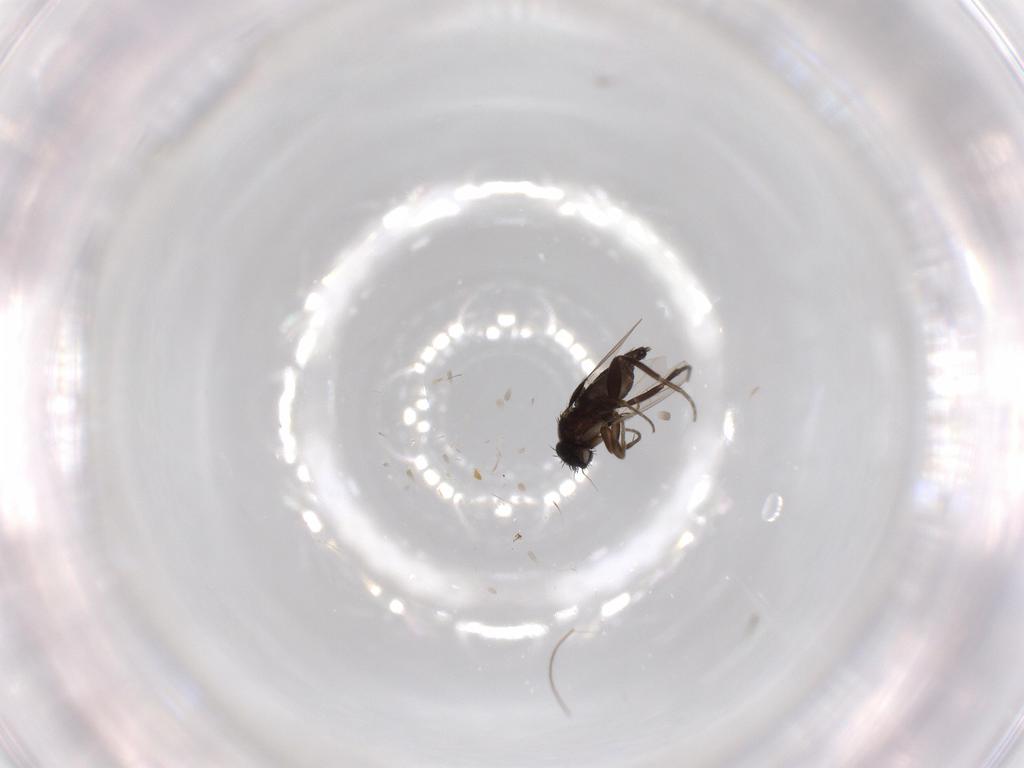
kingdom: Animalia
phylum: Arthropoda
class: Insecta
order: Diptera
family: Phoridae
